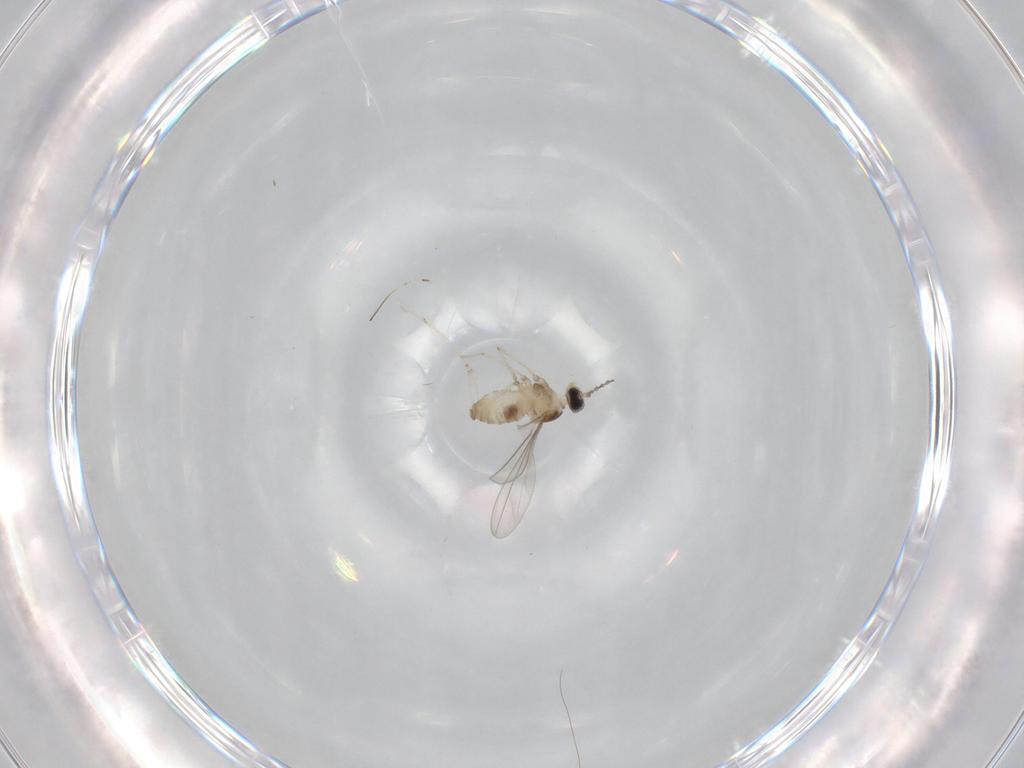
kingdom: Animalia
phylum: Arthropoda
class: Insecta
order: Diptera
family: Cecidomyiidae
